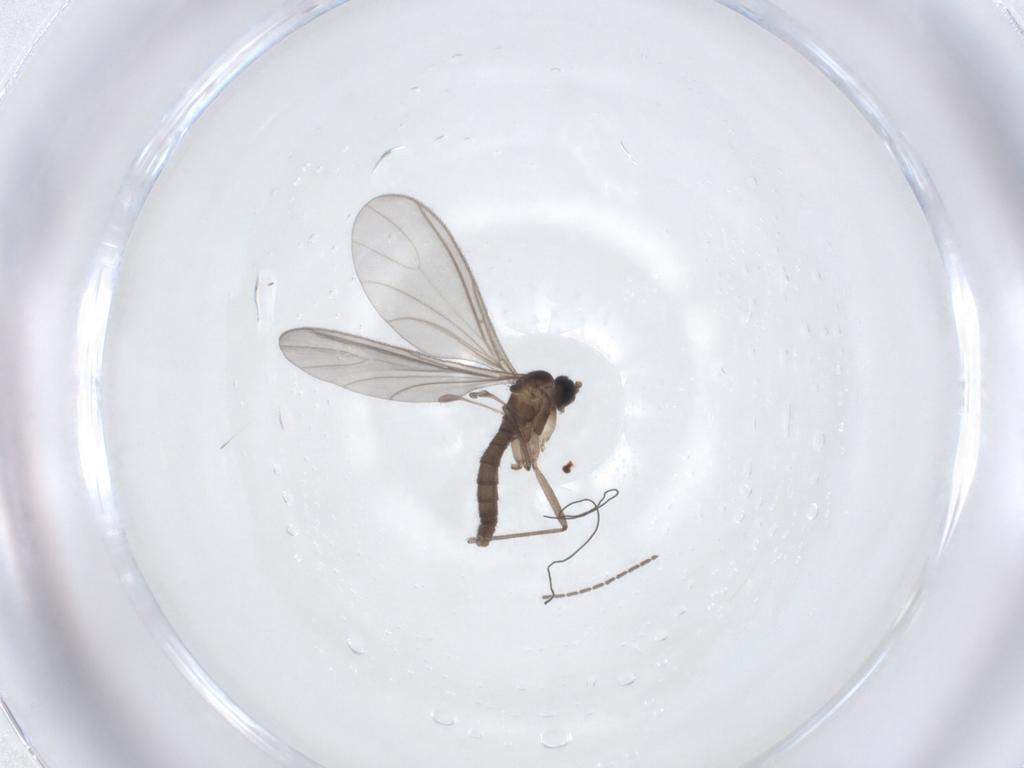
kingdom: Animalia
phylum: Arthropoda
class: Insecta
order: Diptera
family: Sciaridae
